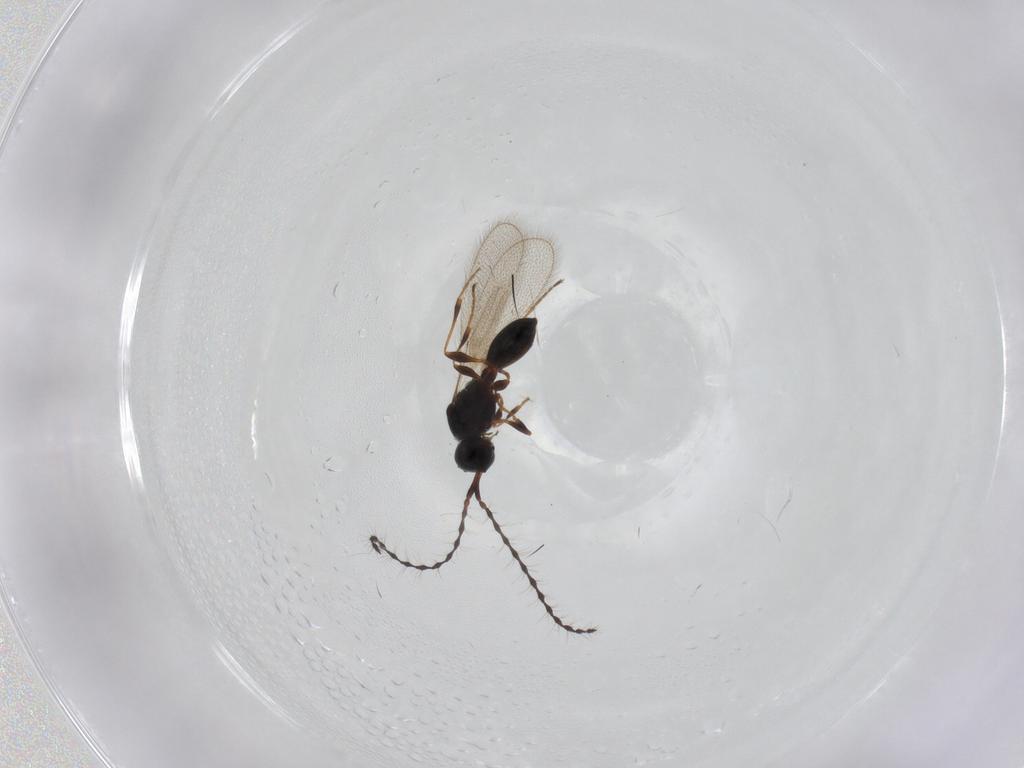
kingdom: Animalia
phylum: Arthropoda
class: Insecta
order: Hymenoptera
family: Diapriidae
